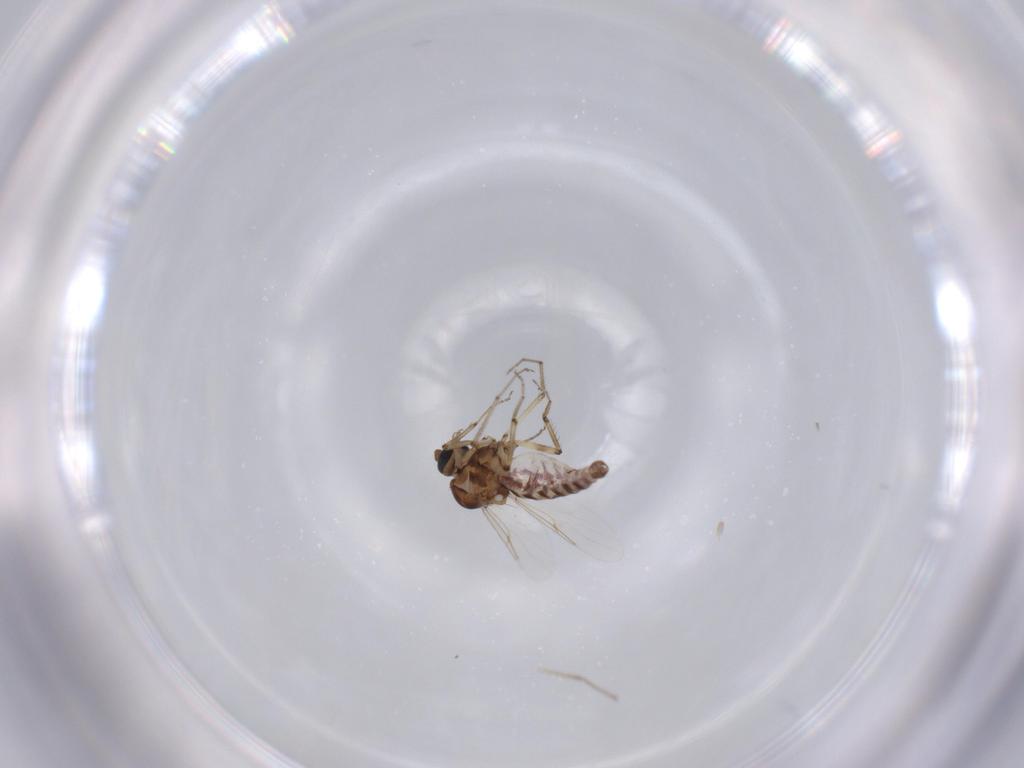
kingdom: Animalia
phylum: Arthropoda
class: Insecta
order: Diptera
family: Ceratopogonidae
